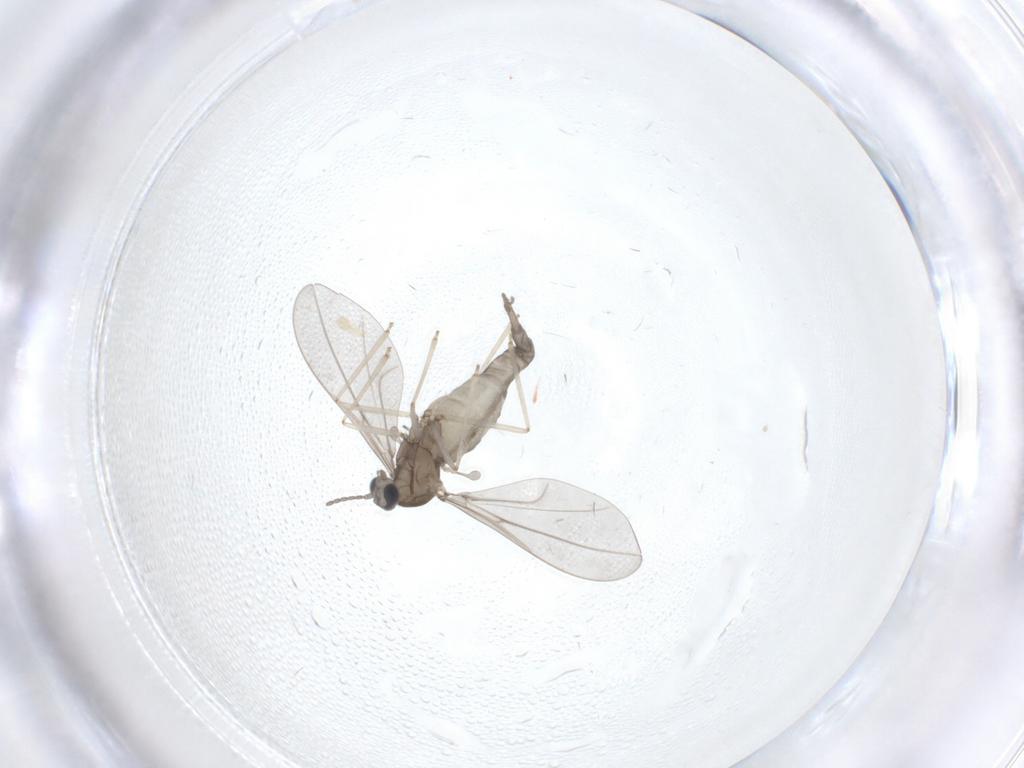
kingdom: Animalia
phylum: Arthropoda
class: Insecta
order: Diptera
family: Cecidomyiidae
